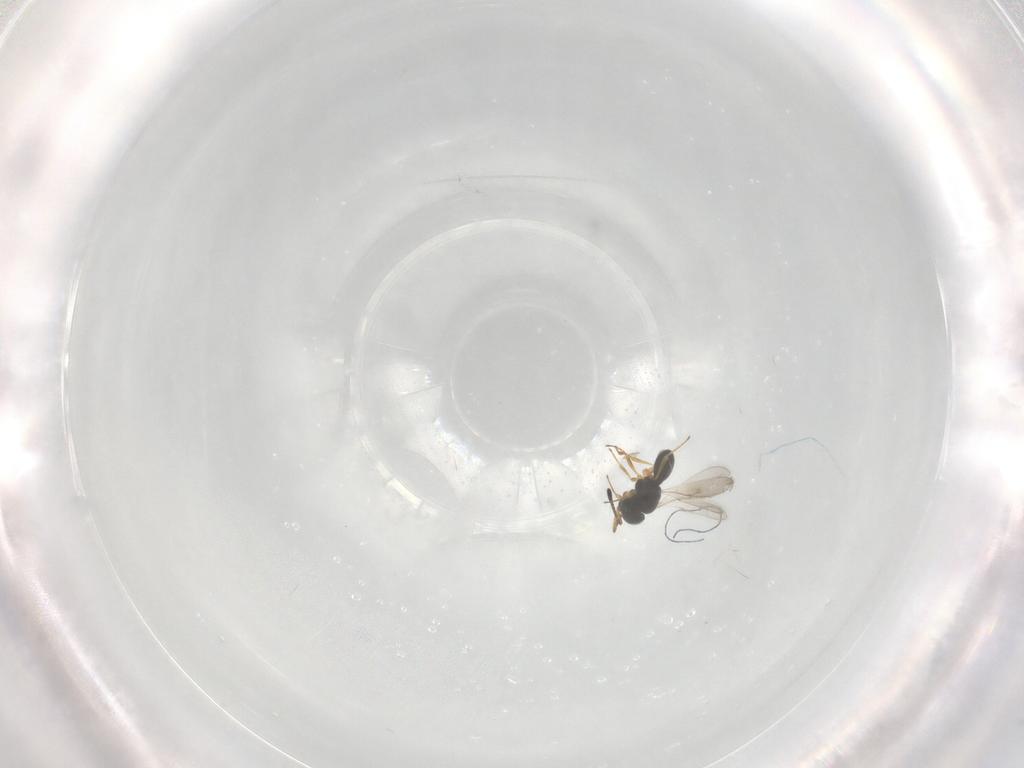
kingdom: Animalia
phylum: Arthropoda
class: Insecta
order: Hymenoptera
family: Scelionidae
